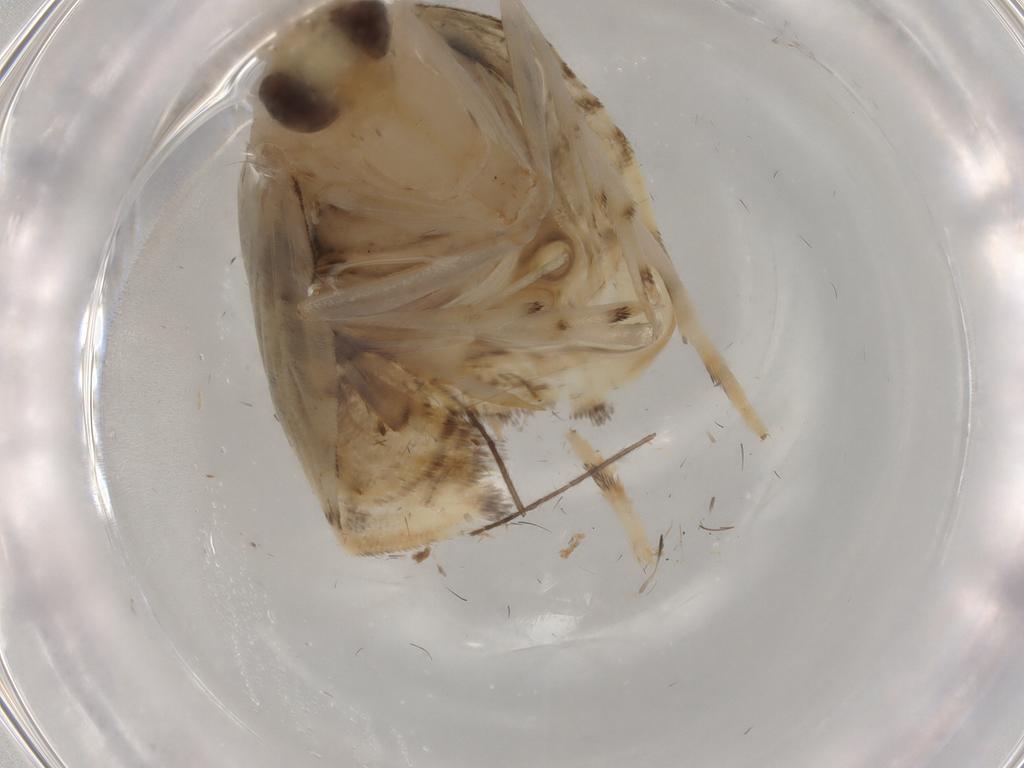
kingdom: Animalia
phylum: Arthropoda
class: Insecta
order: Lepidoptera
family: Crambidae
